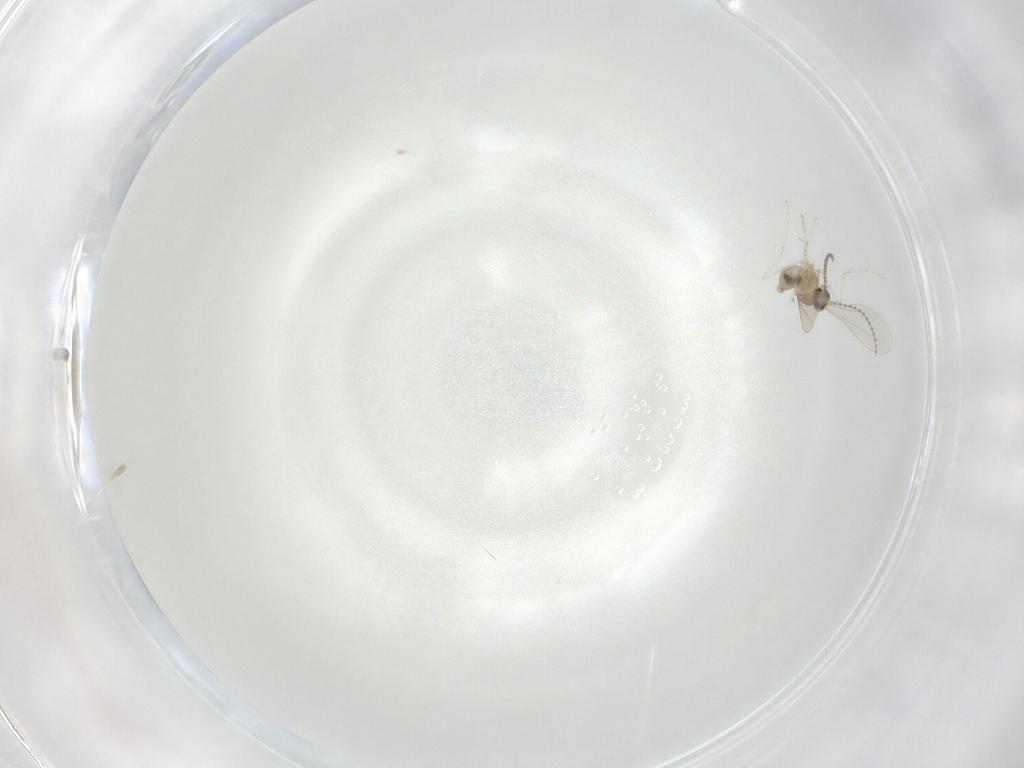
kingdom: Animalia
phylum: Arthropoda
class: Insecta
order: Diptera
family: Cecidomyiidae
